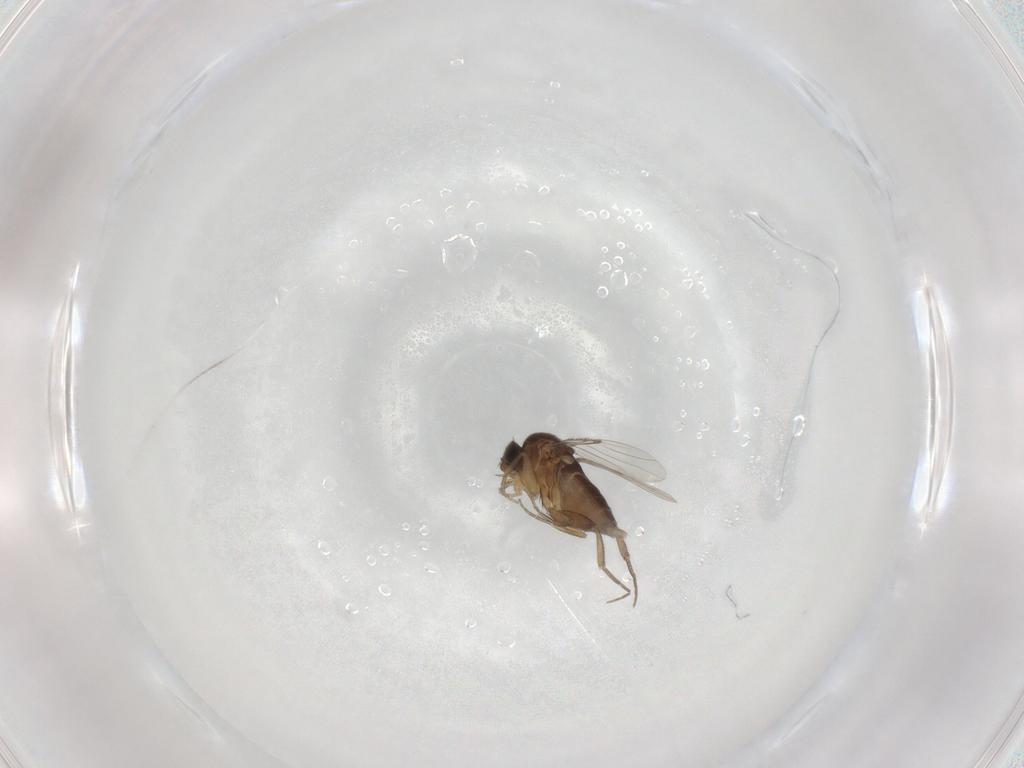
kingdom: Animalia
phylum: Arthropoda
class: Insecta
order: Diptera
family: Phoridae
